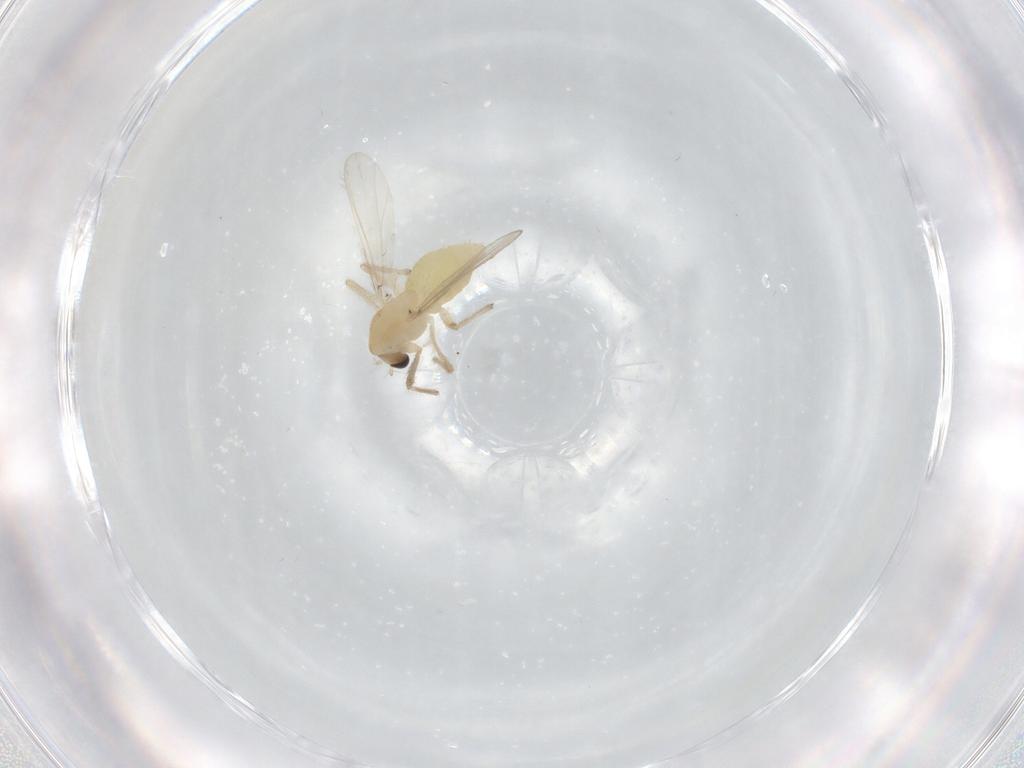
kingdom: Animalia
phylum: Arthropoda
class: Insecta
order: Diptera
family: Chironomidae
